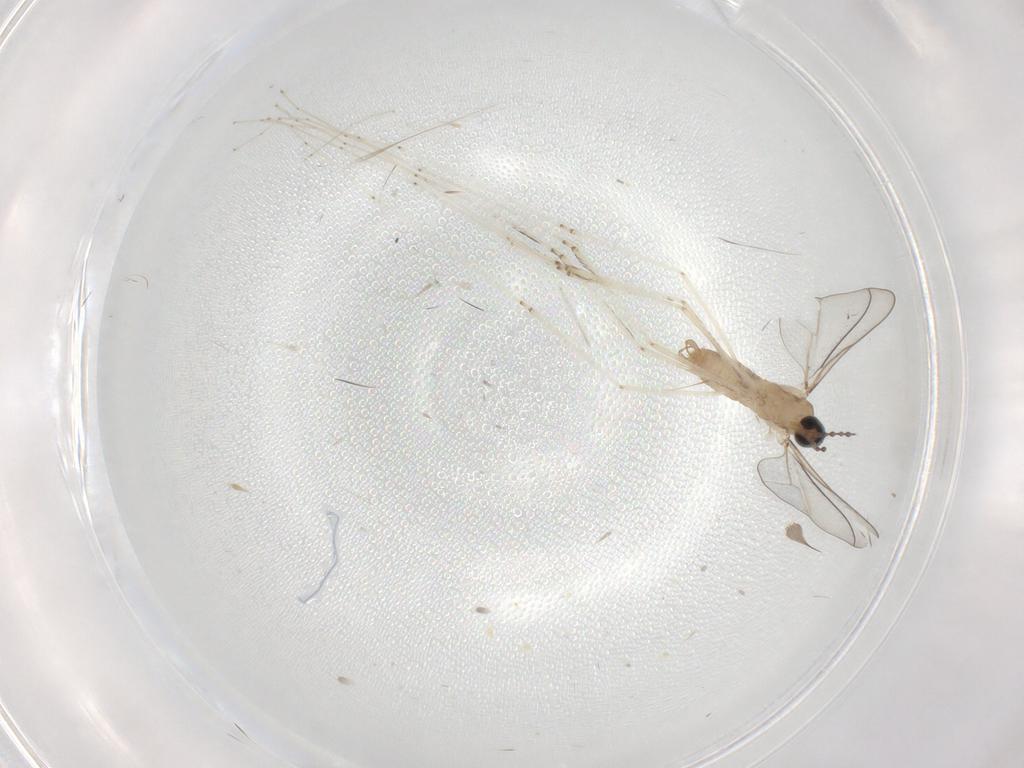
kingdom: Animalia
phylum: Arthropoda
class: Insecta
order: Diptera
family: Cecidomyiidae
